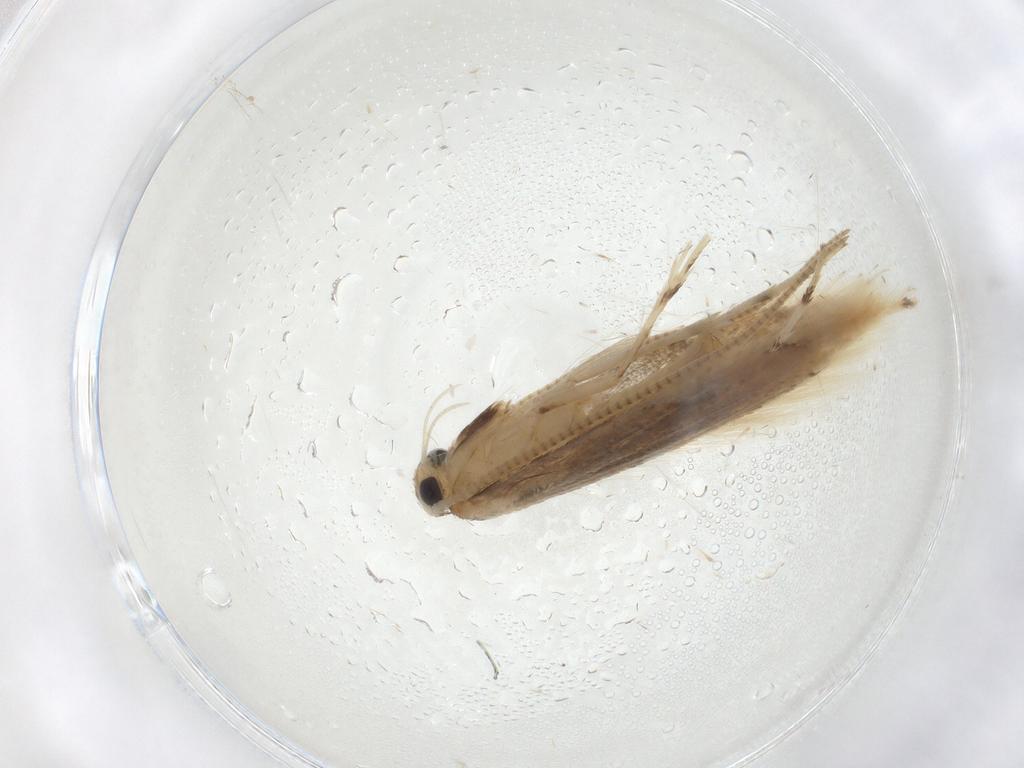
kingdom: Animalia
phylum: Arthropoda
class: Insecta
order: Lepidoptera
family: Gracillariidae
